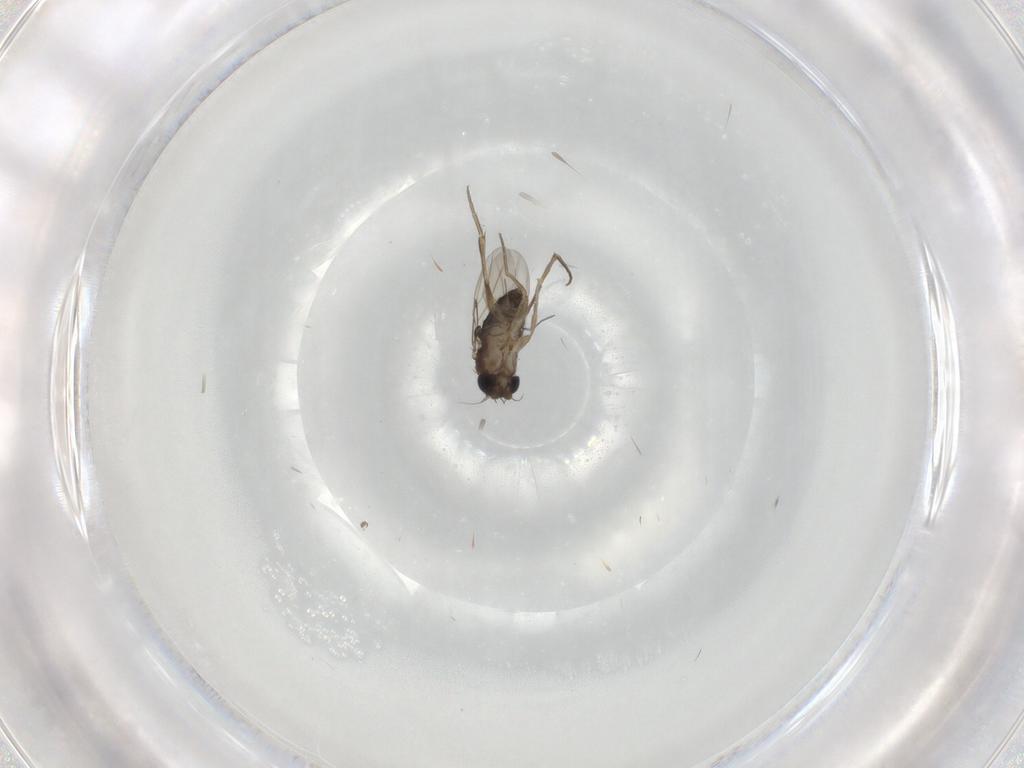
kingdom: Animalia
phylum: Arthropoda
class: Insecta
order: Diptera
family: Phoridae
